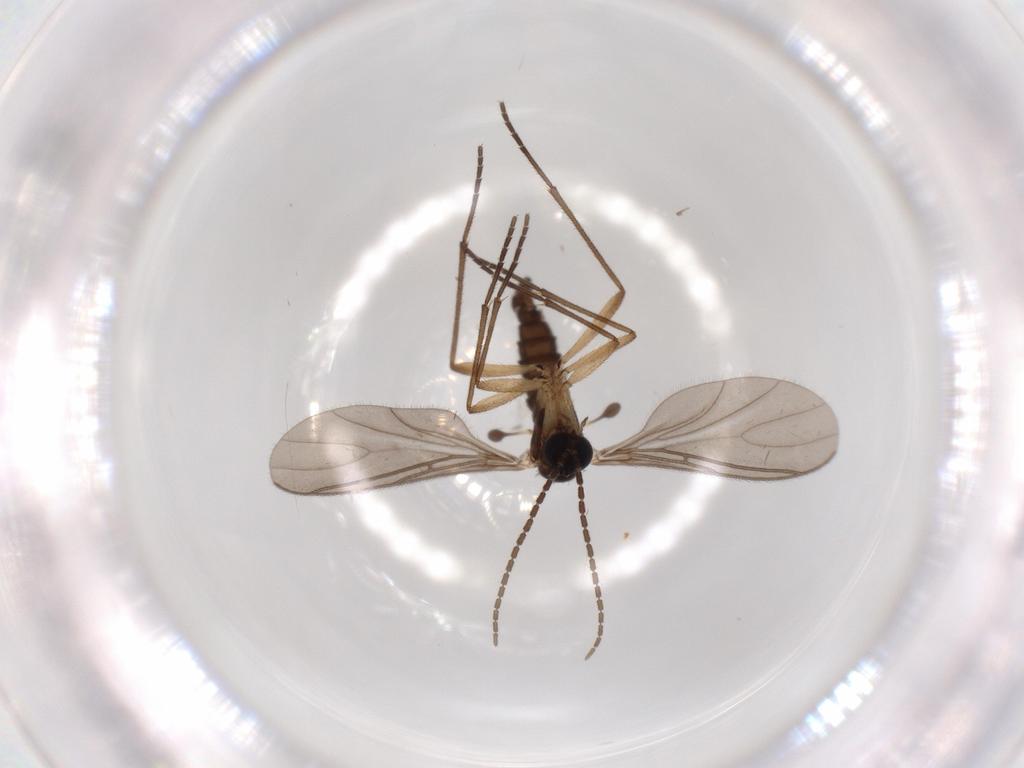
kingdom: Animalia
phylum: Arthropoda
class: Insecta
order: Diptera
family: Sciaridae
